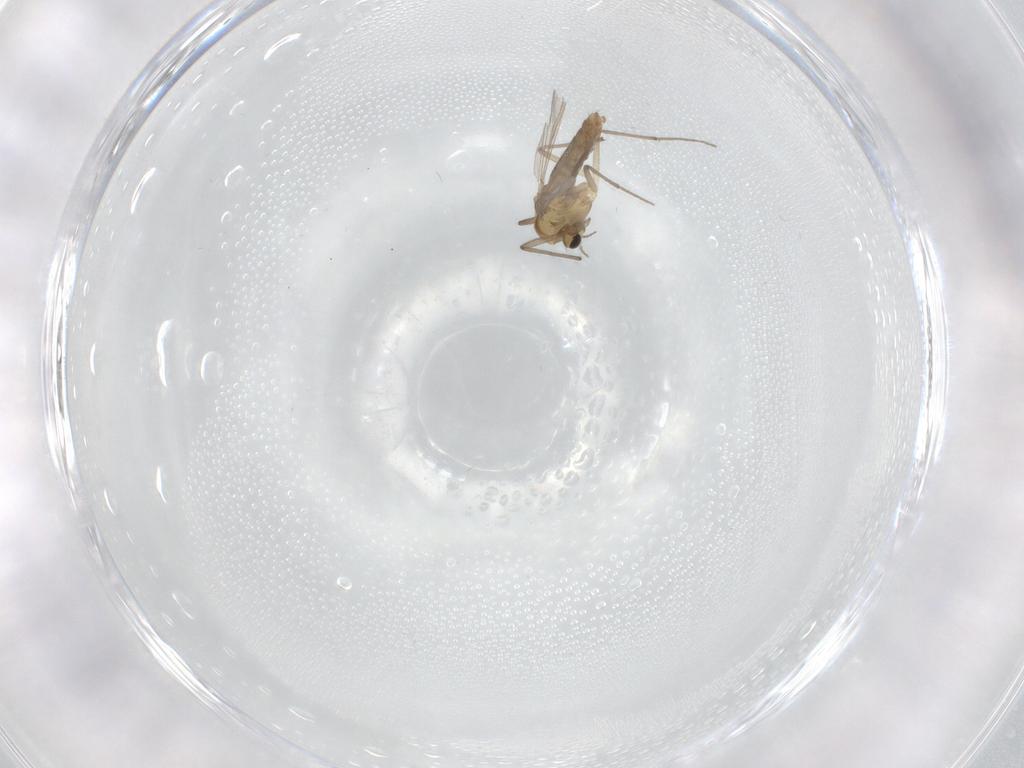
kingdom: Animalia
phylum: Arthropoda
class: Insecta
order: Diptera
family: Chironomidae
